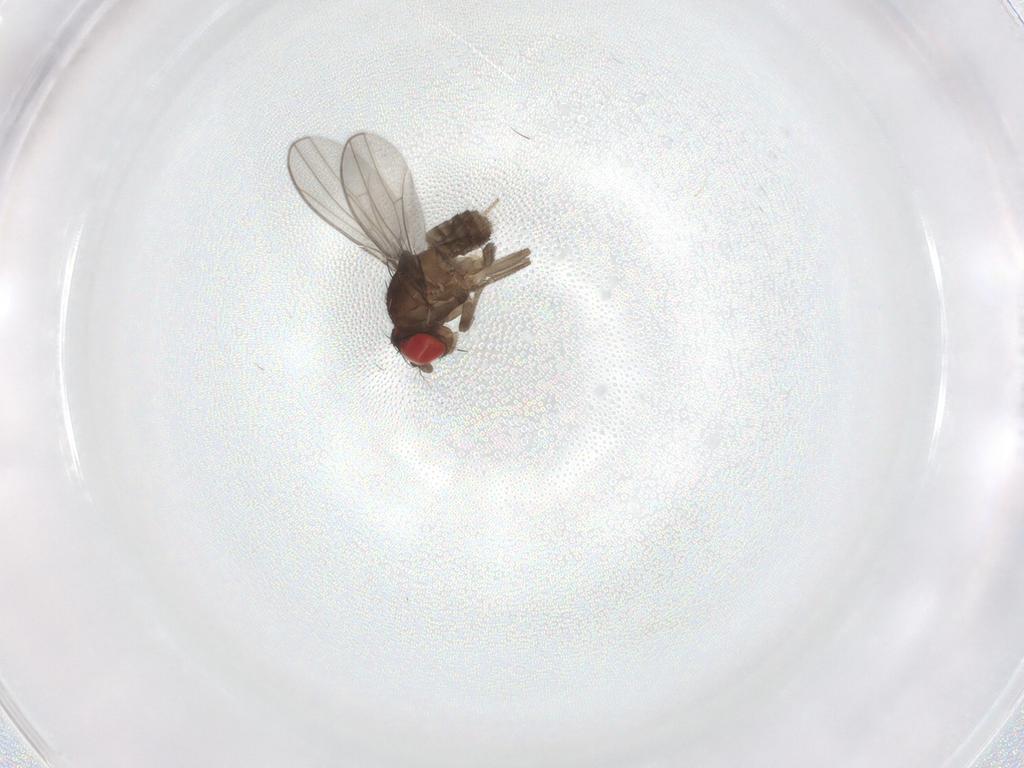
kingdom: Animalia
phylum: Arthropoda
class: Insecta
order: Diptera
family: Drosophilidae
